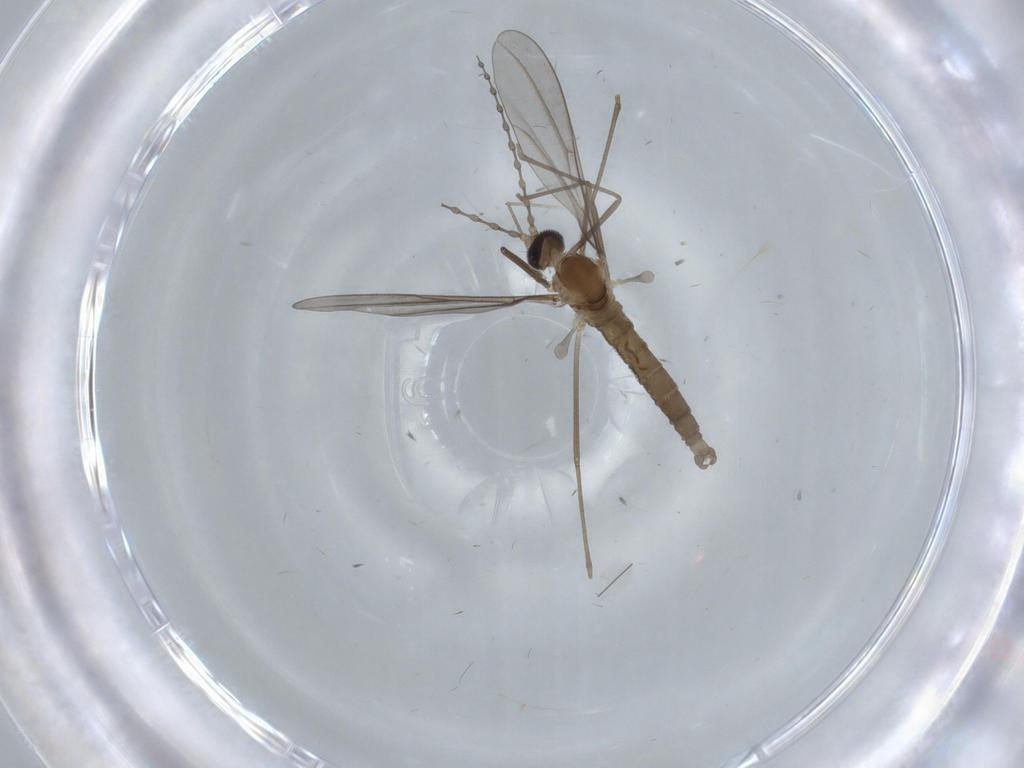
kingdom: Animalia
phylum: Arthropoda
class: Insecta
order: Diptera
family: Cecidomyiidae
